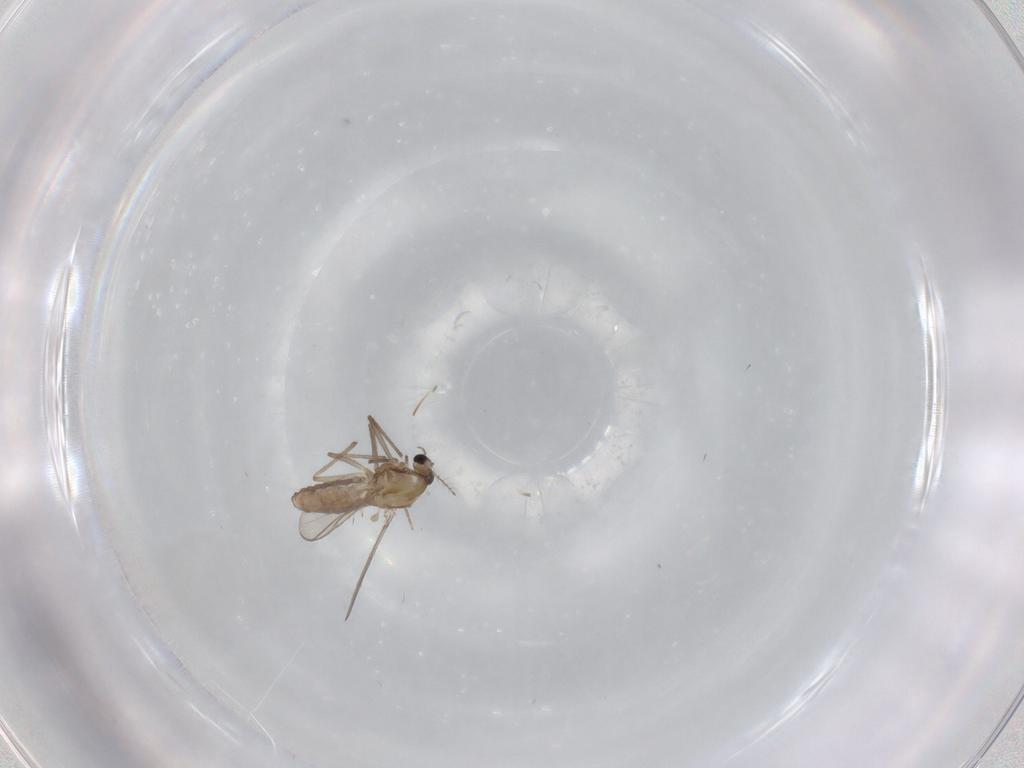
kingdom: Animalia
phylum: Arthropoda
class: Insecta
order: Diptera
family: Chironomidae
